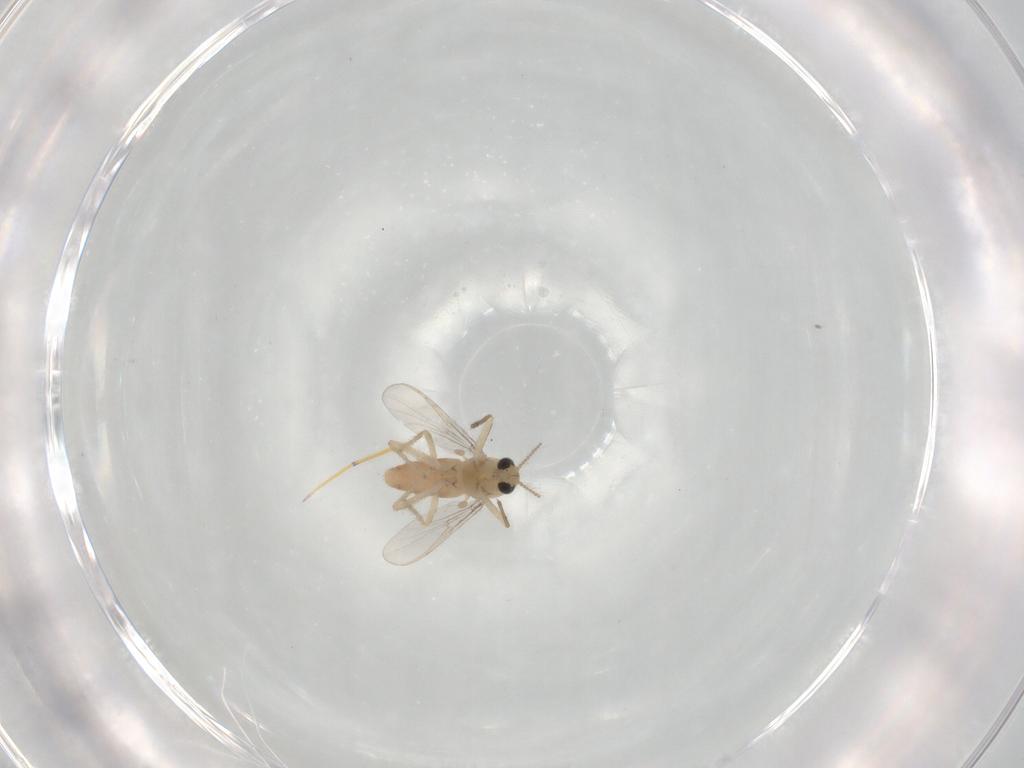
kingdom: Animalia
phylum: Arthropoda
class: Insecta
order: Diptera
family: Chironomidae
